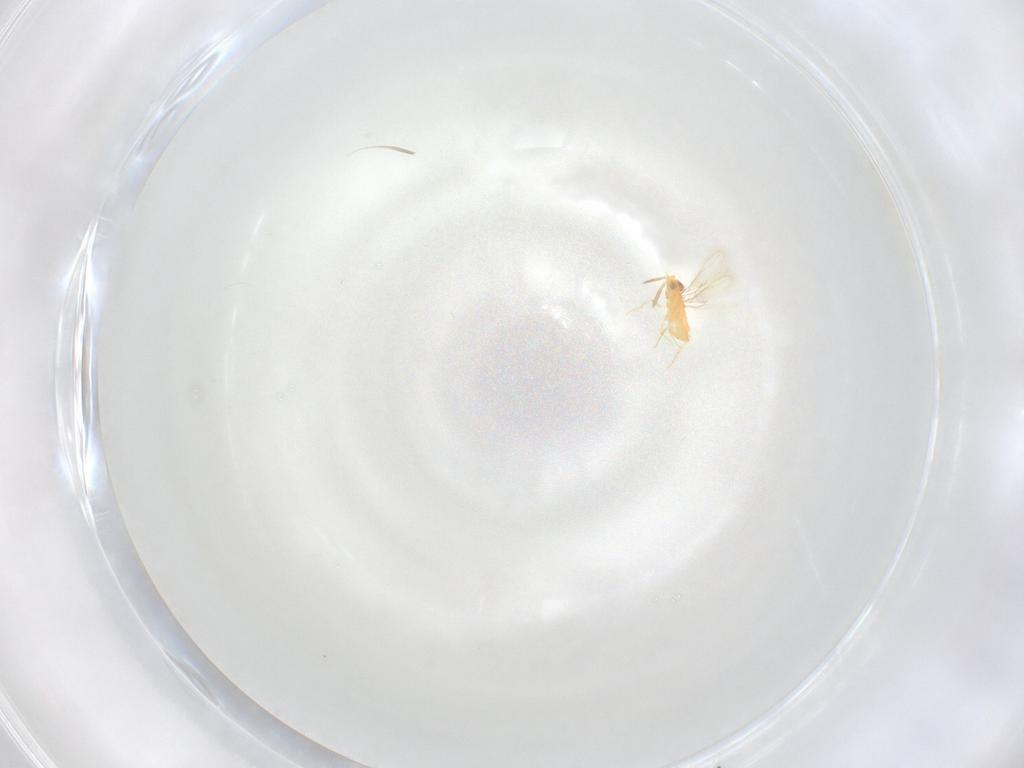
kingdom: Animalia
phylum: Arthropoda
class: Insecta
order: Hymenoptera
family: Aphelinidae
